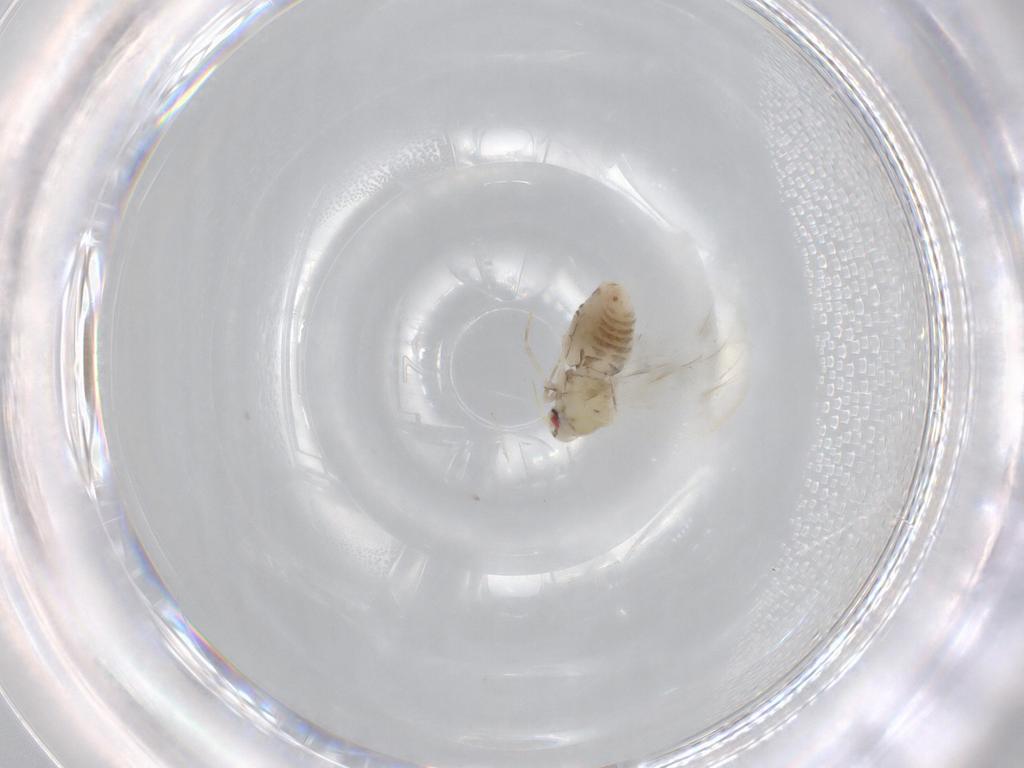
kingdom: Animalia
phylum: Arthropoda
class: Insecta
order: Hemiptera
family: Aleyrodidae
